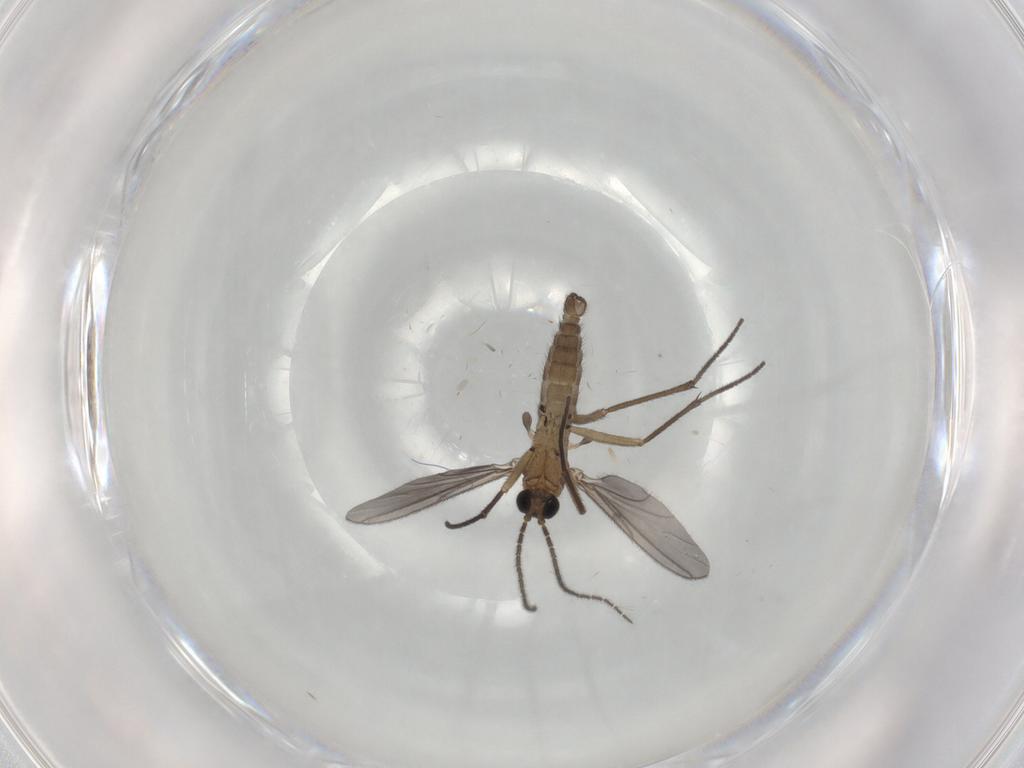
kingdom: Animalia
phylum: Arthropoda
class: Insecta
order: Diptera
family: Sciaridae
